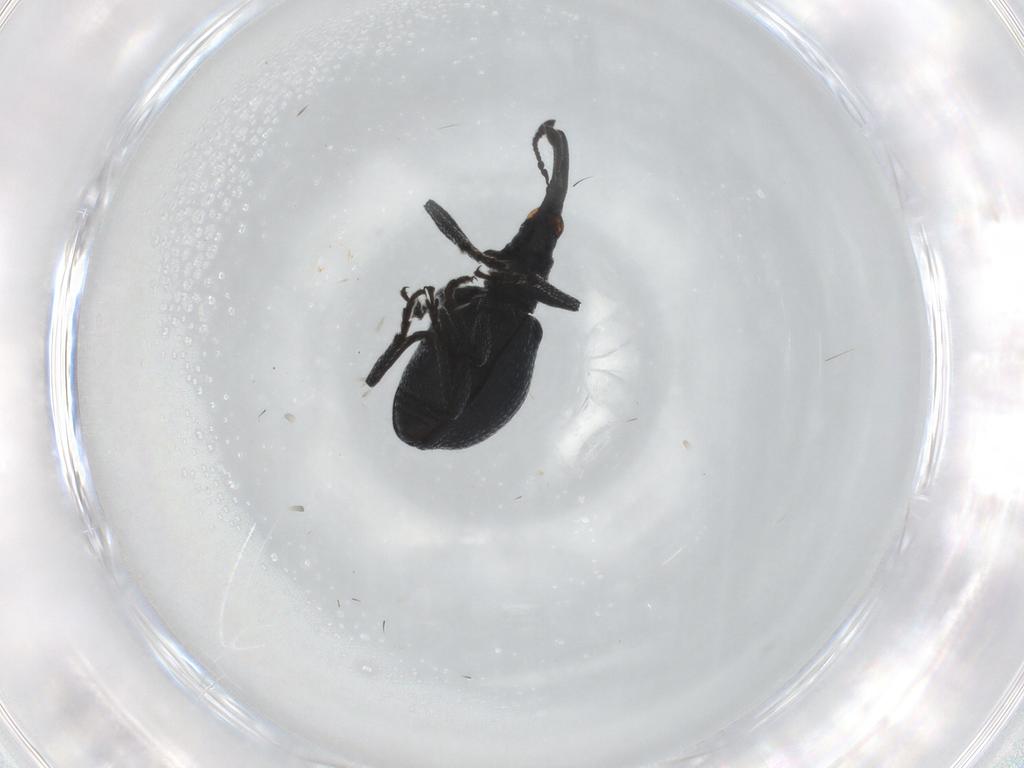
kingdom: Animalia
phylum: Arthropoda
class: Insecta
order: Coleoptera
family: Brentidae
